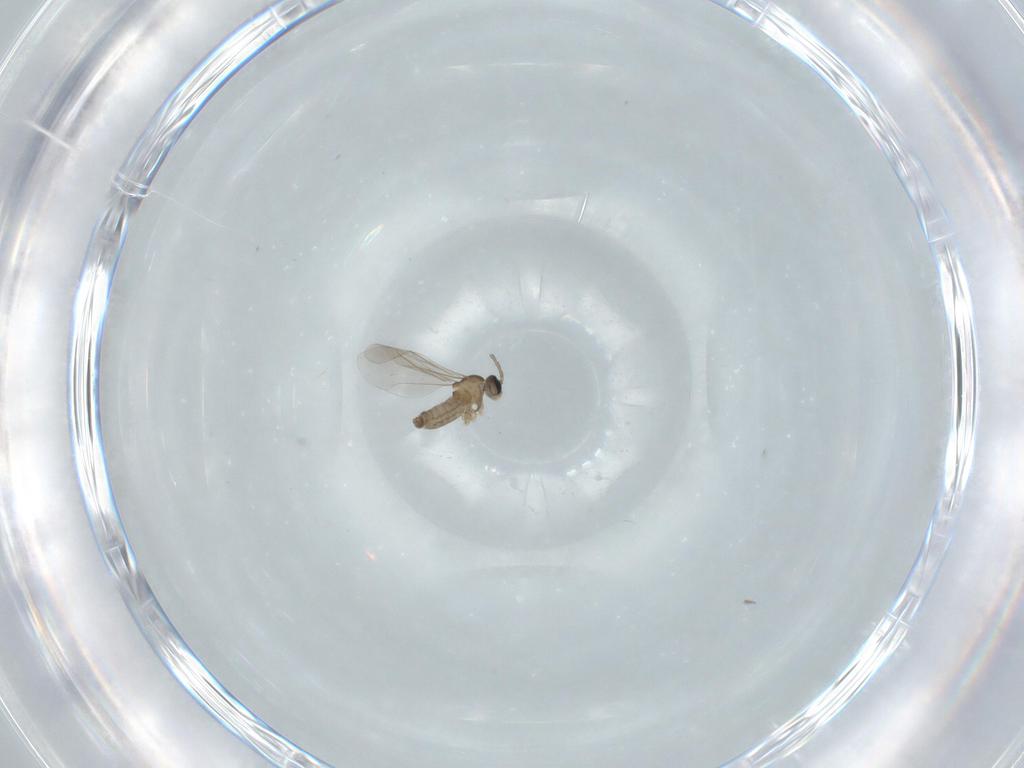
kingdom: Animalia
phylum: Arthropoda
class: Insecta
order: Diptera
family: Cecidomyiidae
